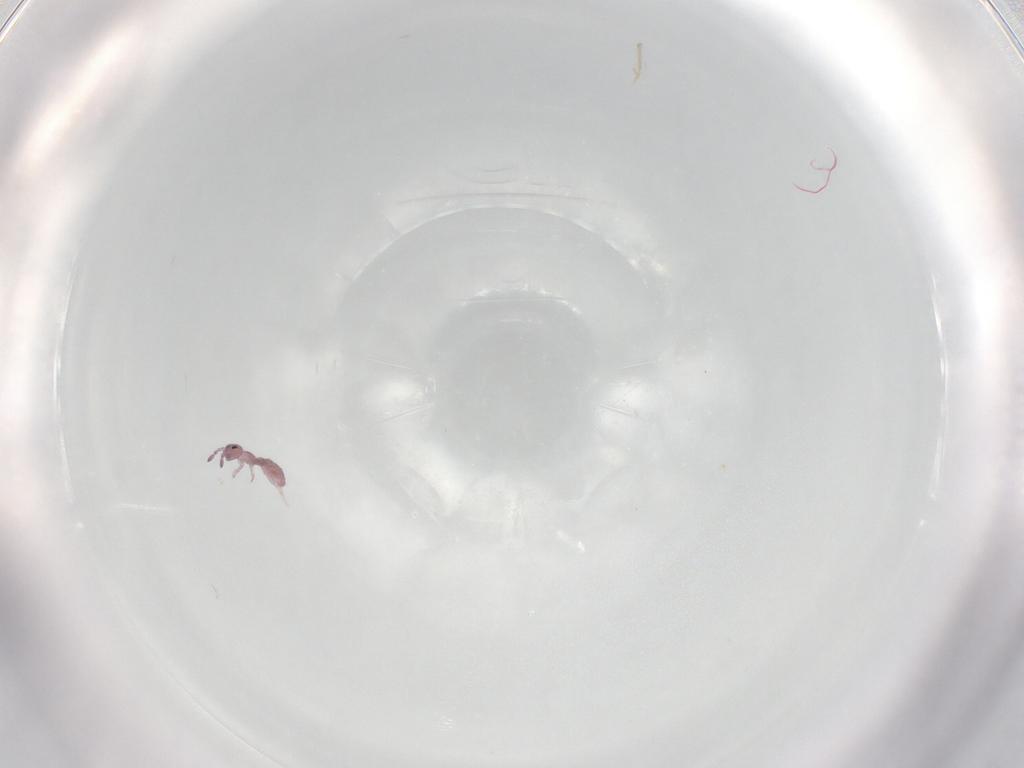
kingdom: Animalia
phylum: Arthropoda
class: Collembola
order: Entomobryomorpha
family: Isotomidae
